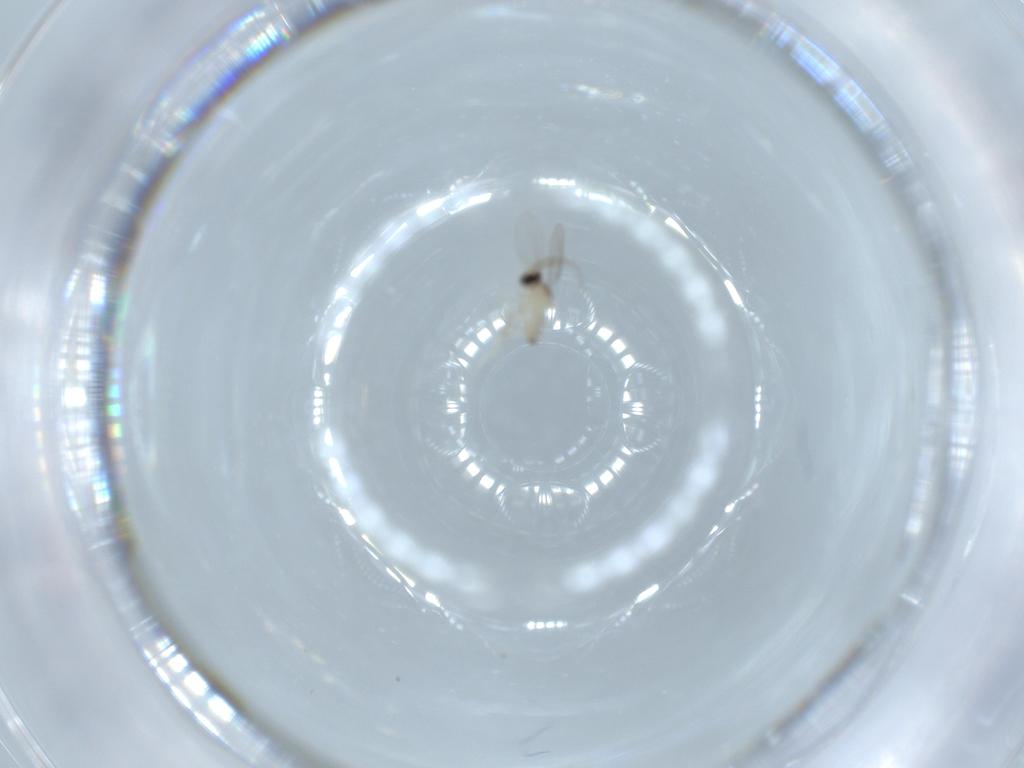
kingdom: Animalia
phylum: Arthropoda
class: Insecta
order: Diptera
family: Cecidomyiidae
